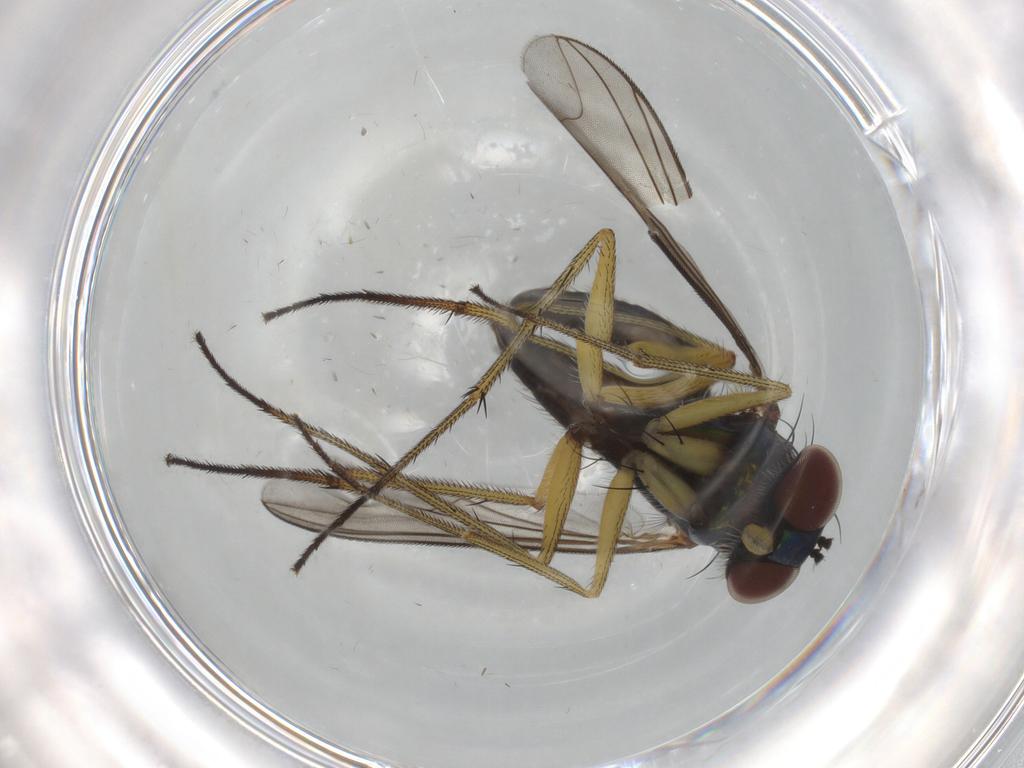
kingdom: Animalia
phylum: Arthropoda
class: Insecta
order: Diptera
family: Dolichopodidae
